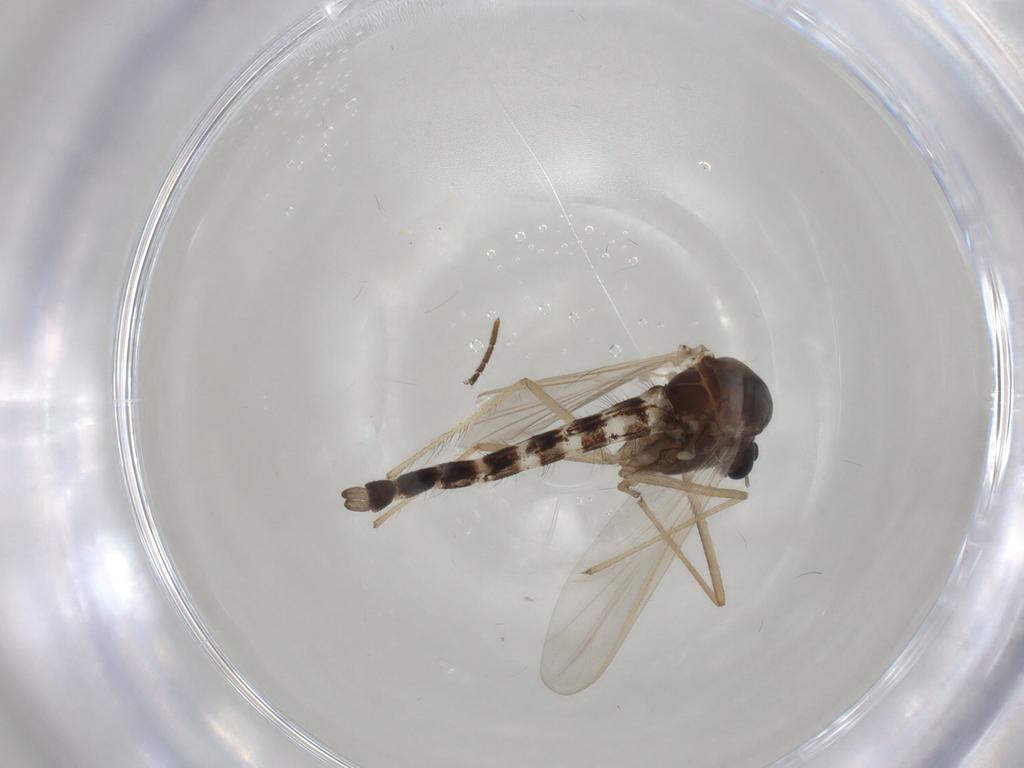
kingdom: Animalia
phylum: Arthropoda
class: Insecta
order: Diptera
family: Chironomidae
